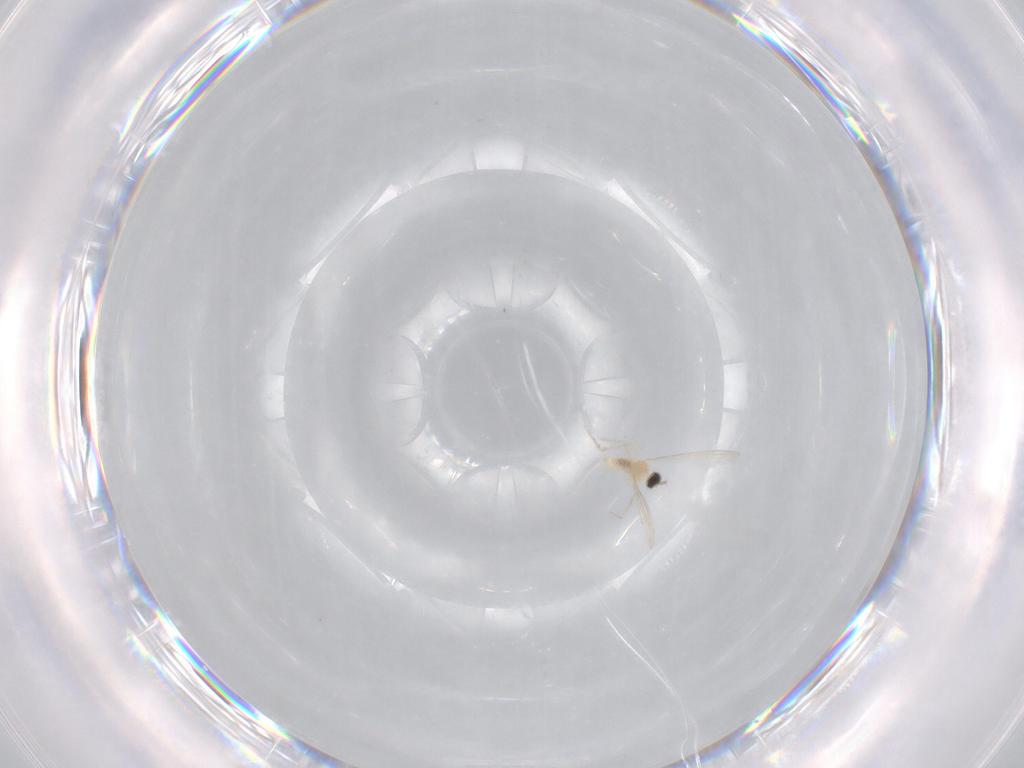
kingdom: Animalia
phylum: Arthropoda
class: Insecta
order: Diptera
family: Cecidomyiidae
